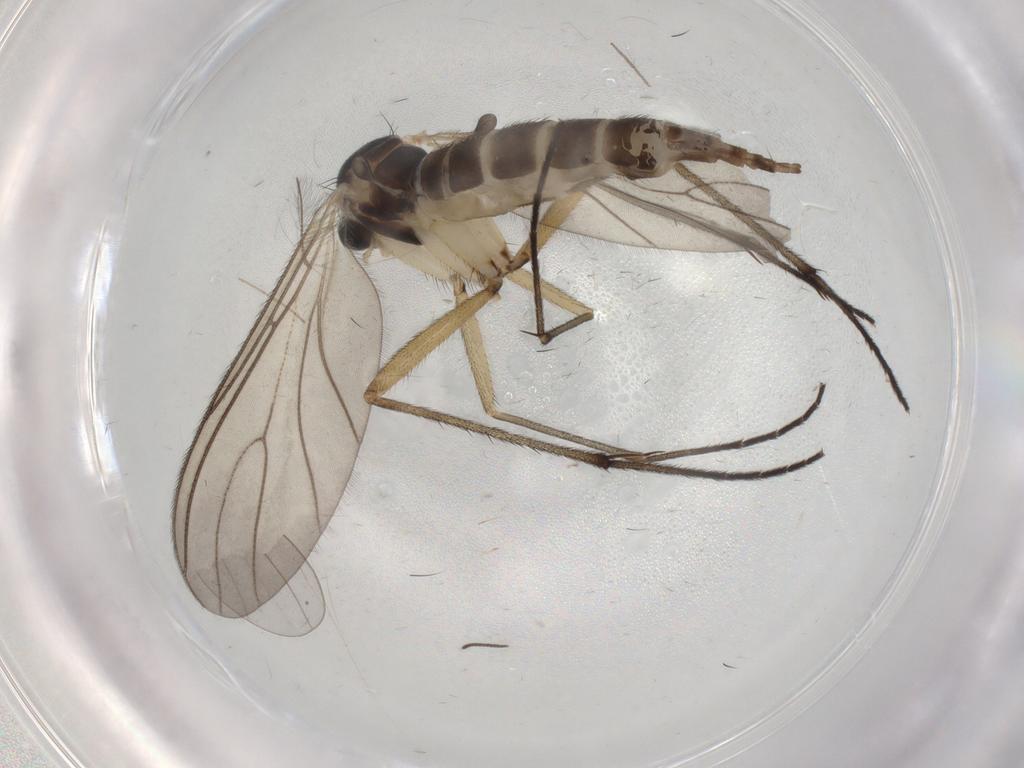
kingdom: Animalia
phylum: Arthropoda
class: Insecta
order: Diptera
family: Sciaridae
